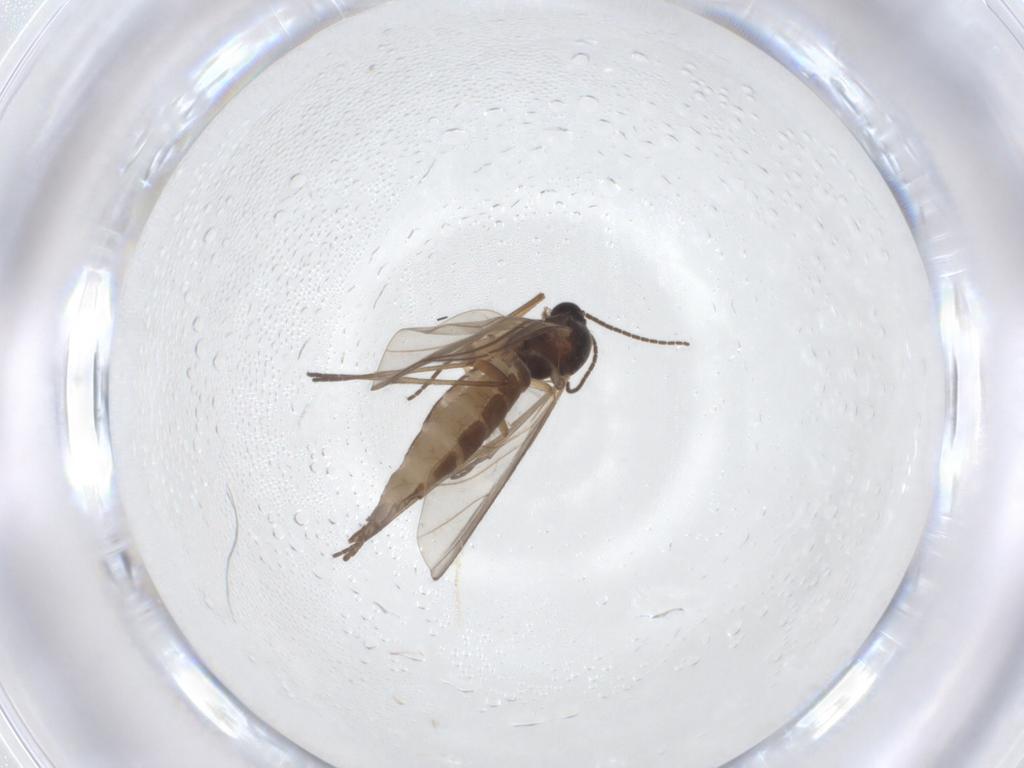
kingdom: Animalia
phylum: Arthropoda
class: Insecta
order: Diptera
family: Sciaridae
